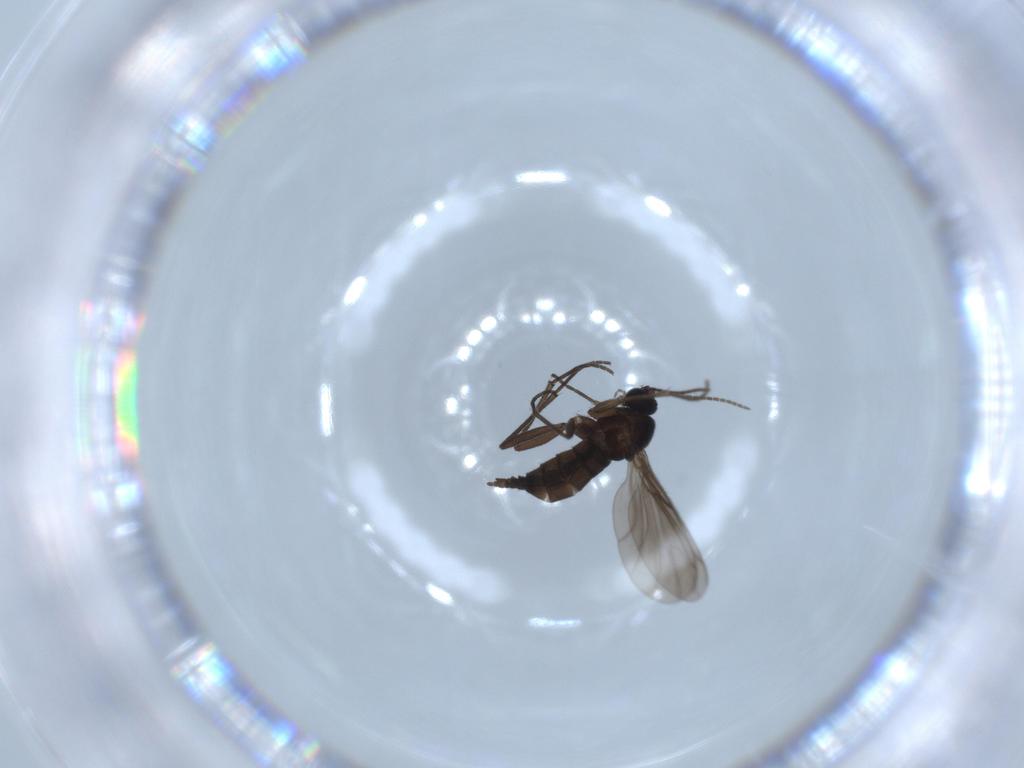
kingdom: Animalia
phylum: Arthropoda
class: Insecta
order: Diptera
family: Sciaridae
